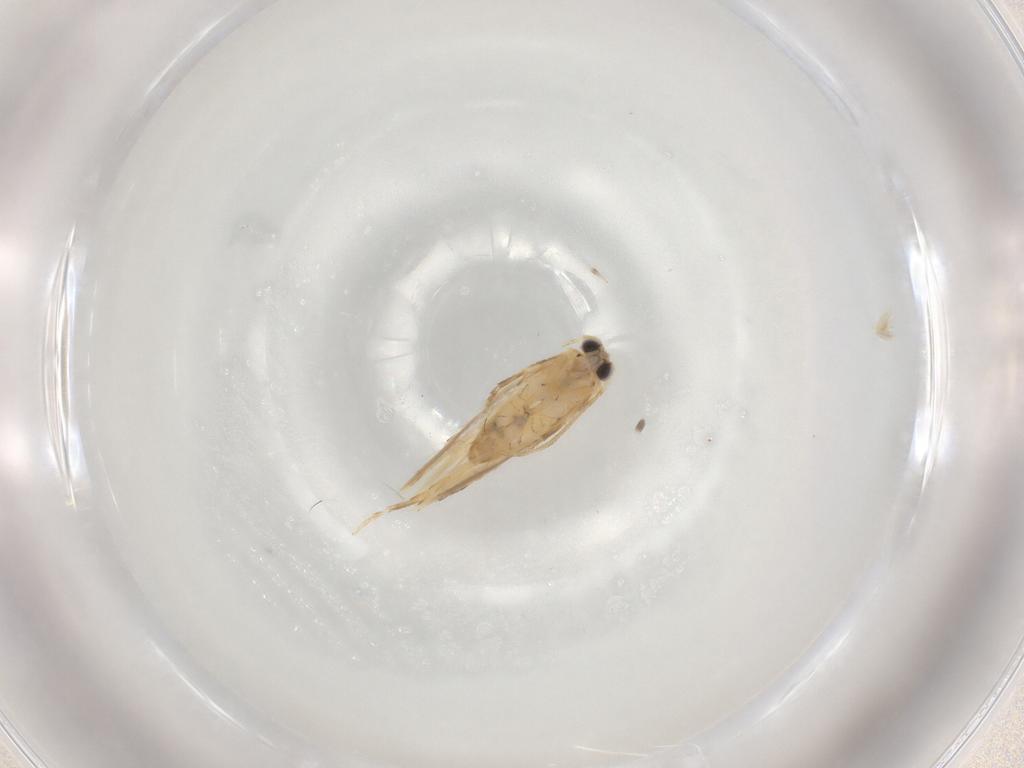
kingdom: Animalia
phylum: Arthropoda
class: Insecta
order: Lepidoptera
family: Nepticulidae
